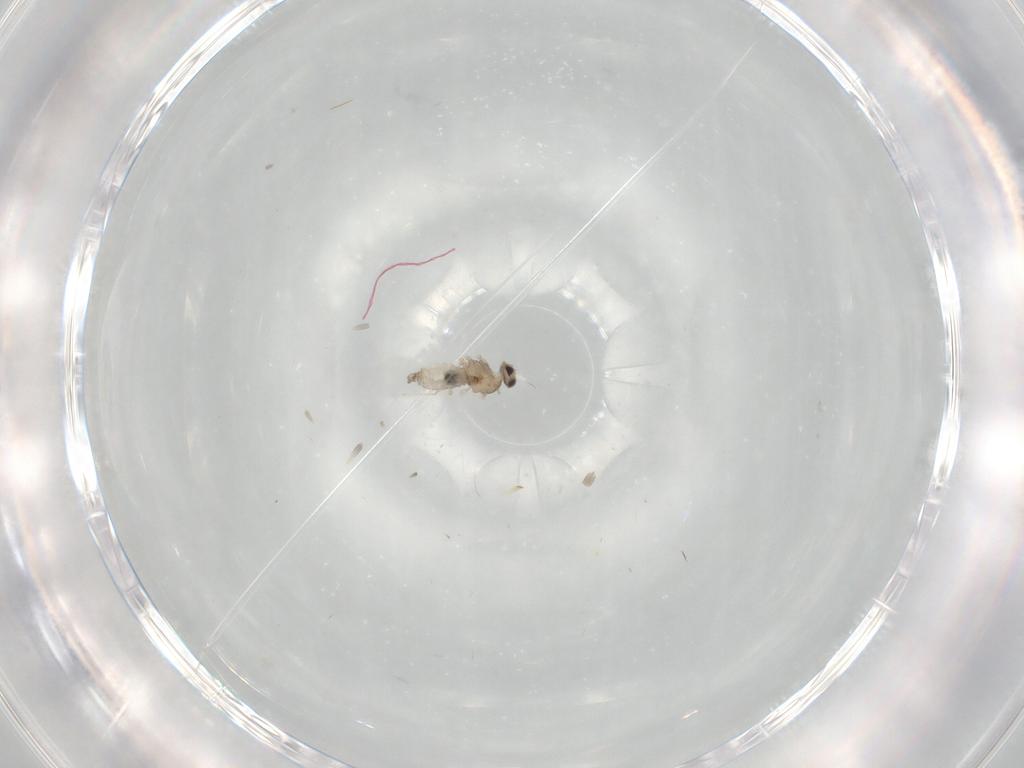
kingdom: Animalia
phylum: Arthropoda
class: Insecta
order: Diptera
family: Cecidomyiidae
